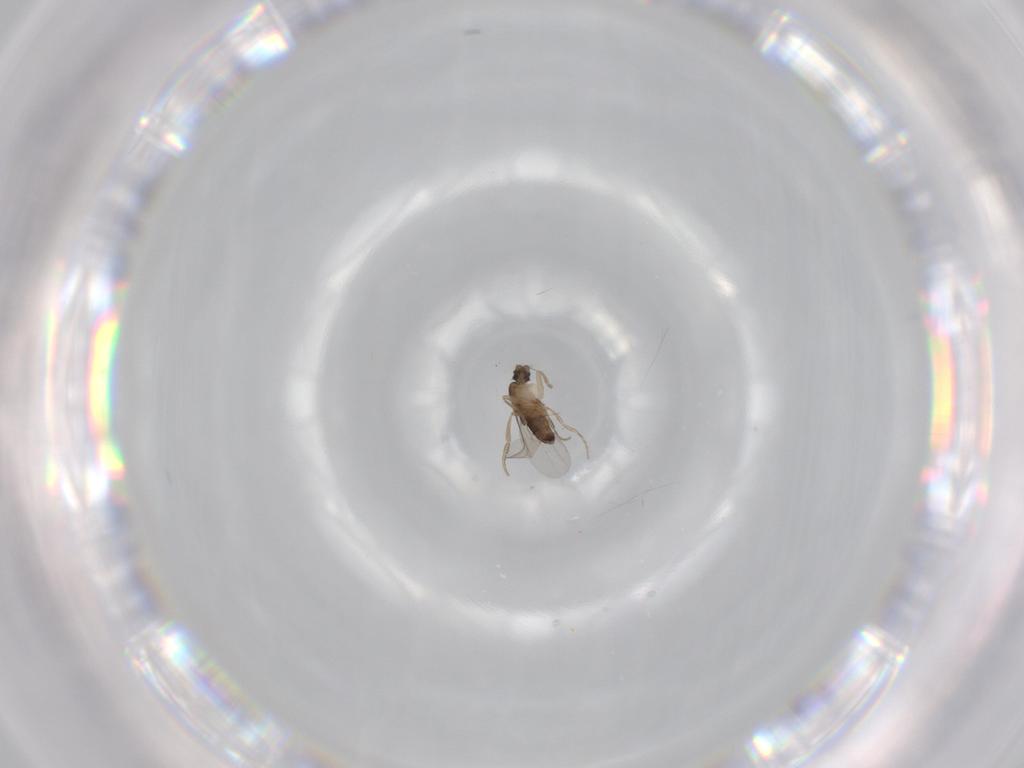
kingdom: Animalia
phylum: Arthropoda
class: Insecta
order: Diptera
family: Phoridae
